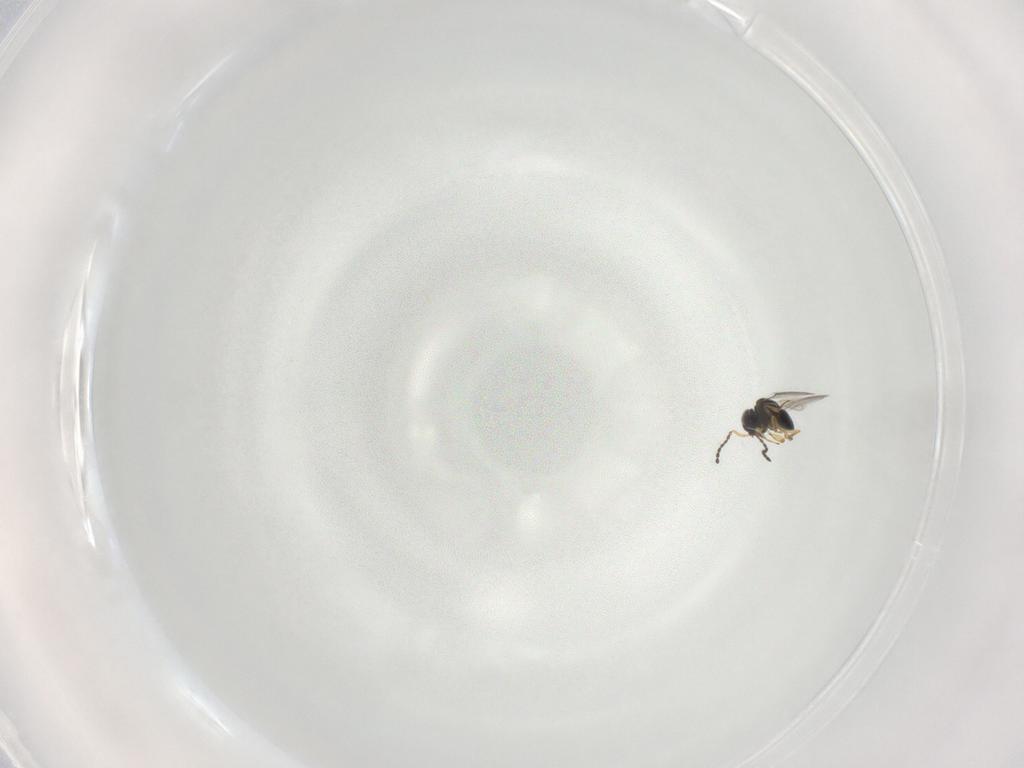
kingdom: Animalia
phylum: Arthropoda
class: Insecta
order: Hymenoptera
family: Scelionidae
